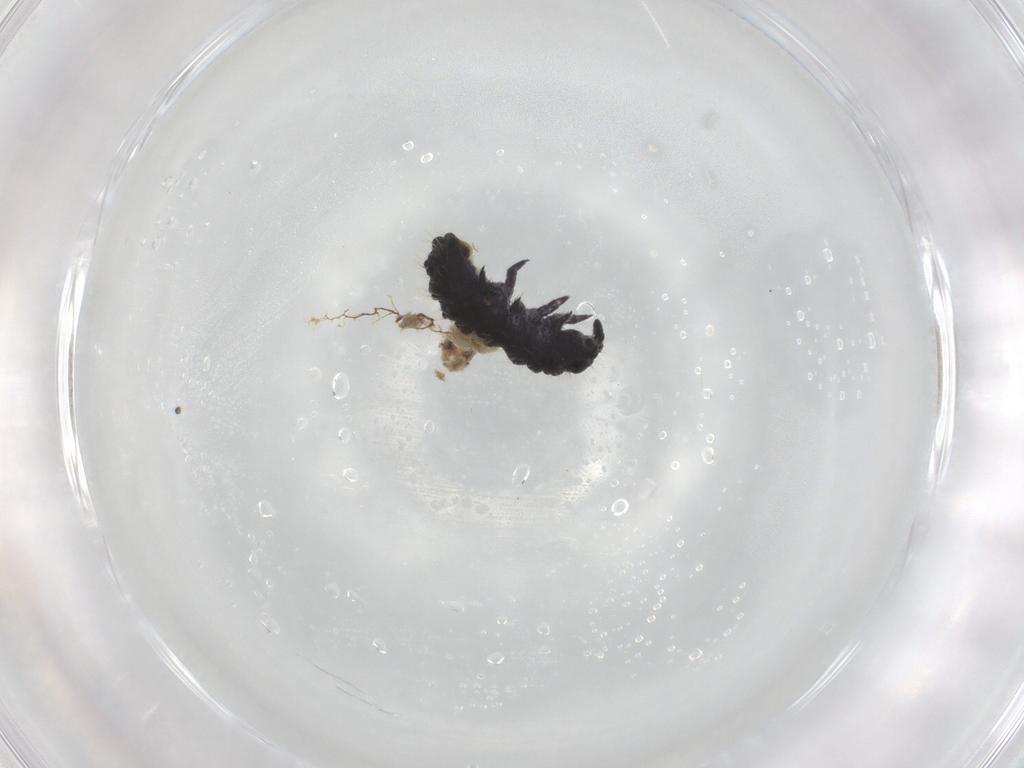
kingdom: Animalia
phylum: Arthropoda
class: Collembola
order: Poduromorpha
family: Neanuridae
